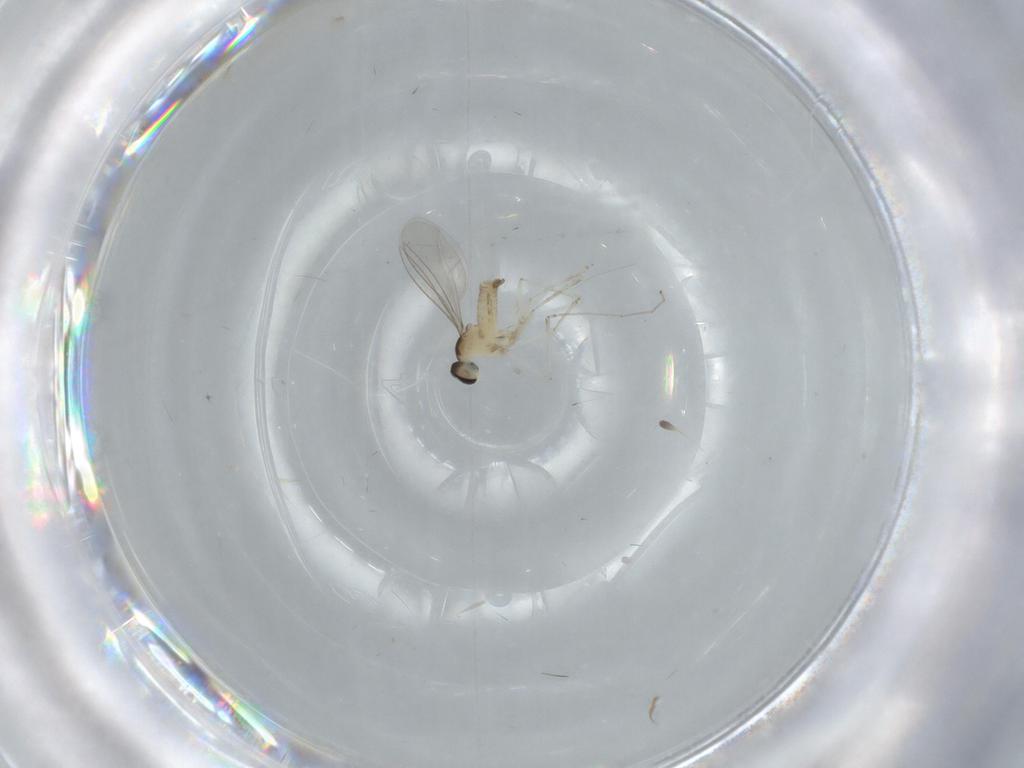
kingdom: Animalia
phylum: Arthropoda
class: Insecta
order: Diptera
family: Cecidomyiidae
